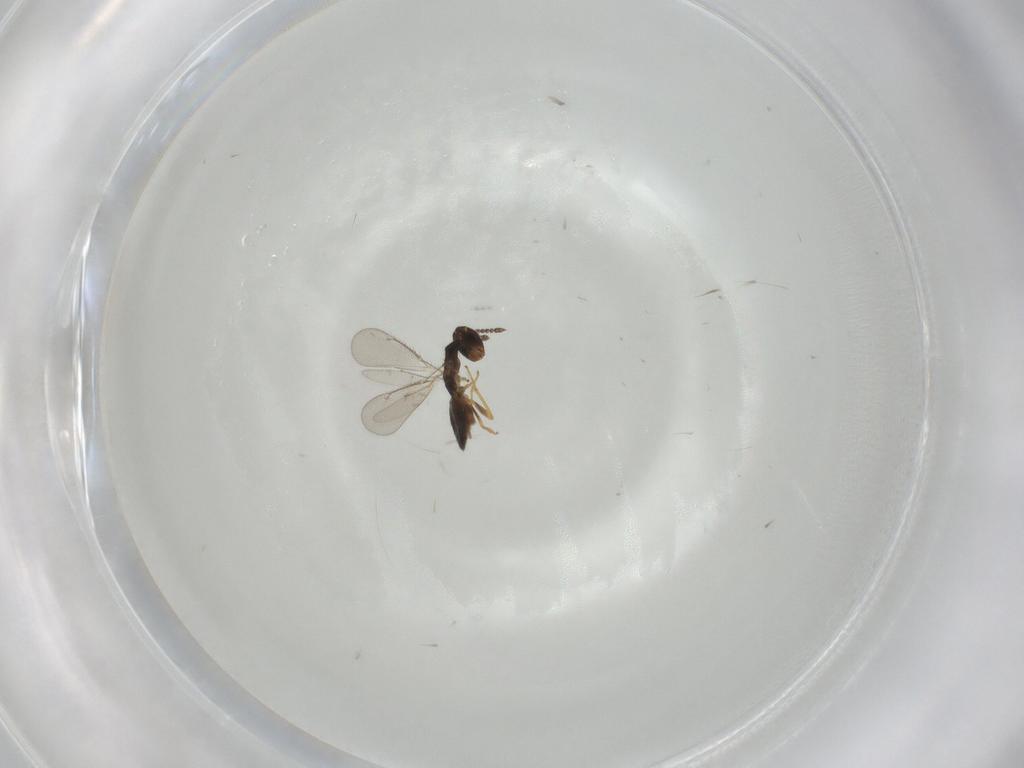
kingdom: Animalia
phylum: Arthropoda
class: Insecta
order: Hymenoptera
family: Eulophidae
